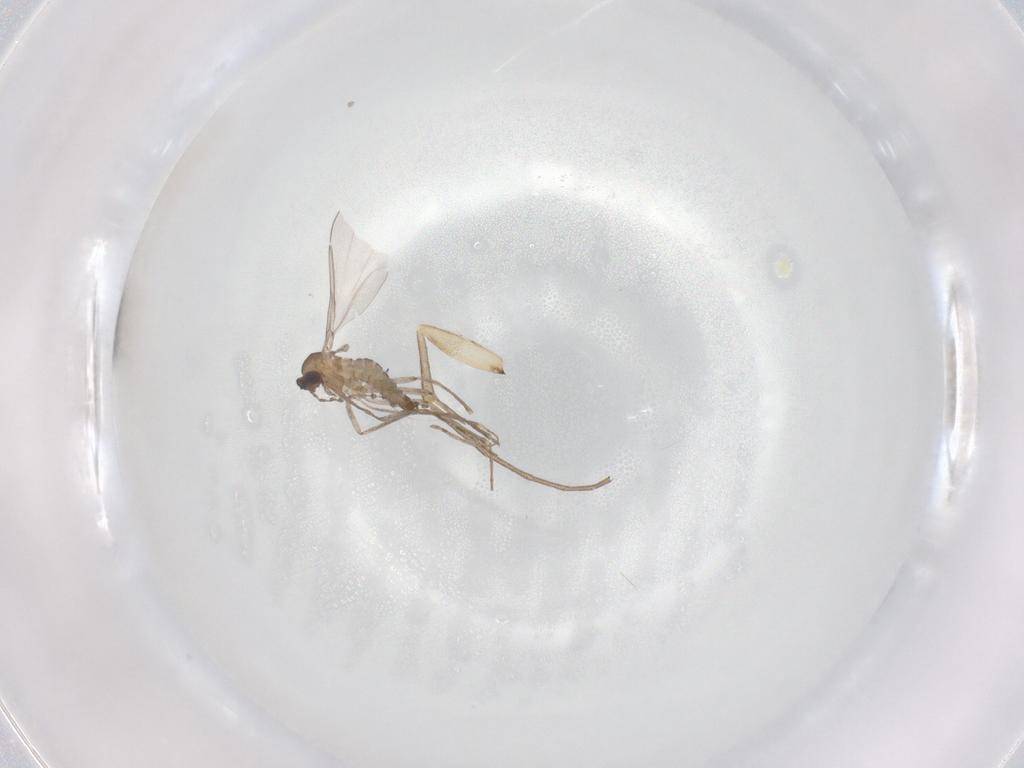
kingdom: Animalia
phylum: Arthropoda
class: Insecta
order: Diptera
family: Mycetophilidae
